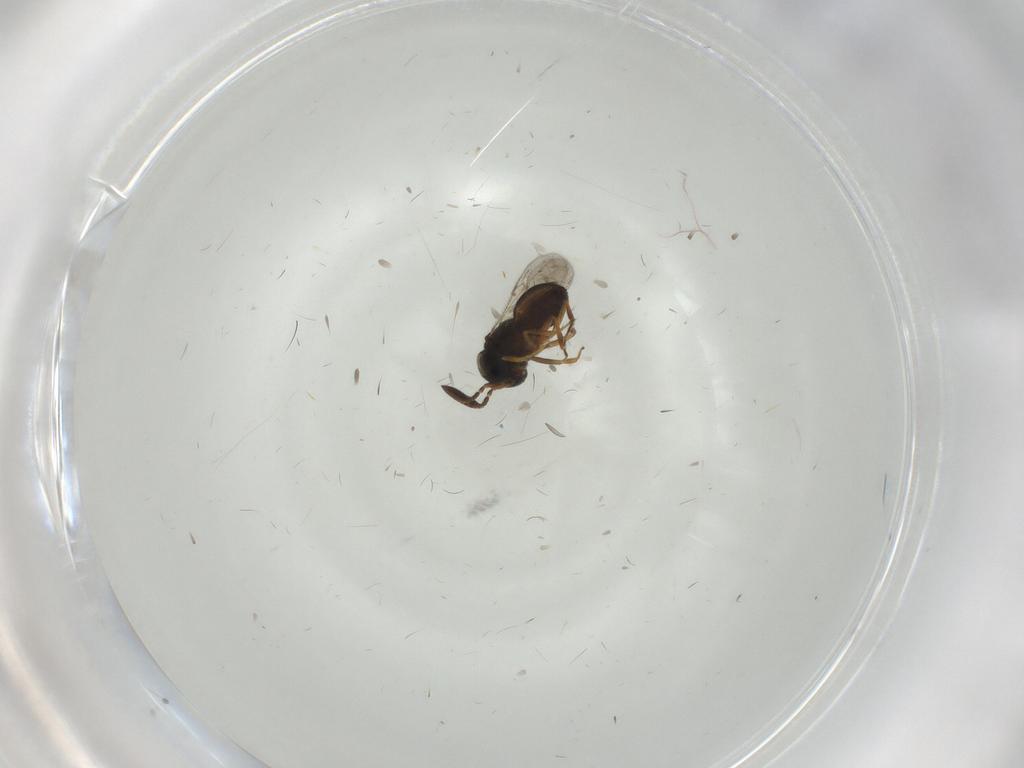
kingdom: Animalia
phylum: Arthropoda
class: Insecta
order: Hymenoptera
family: Scelionidae
